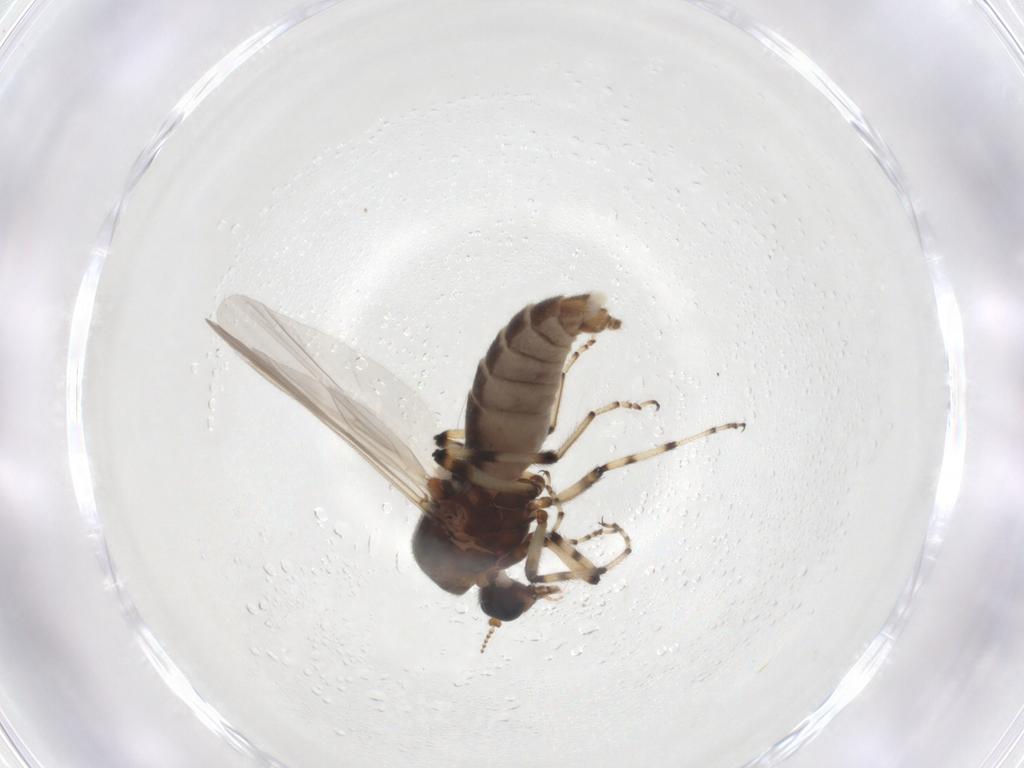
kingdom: Animalia
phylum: Arthropoda
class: Insecta
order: Diptera
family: Ceratopogonidae
